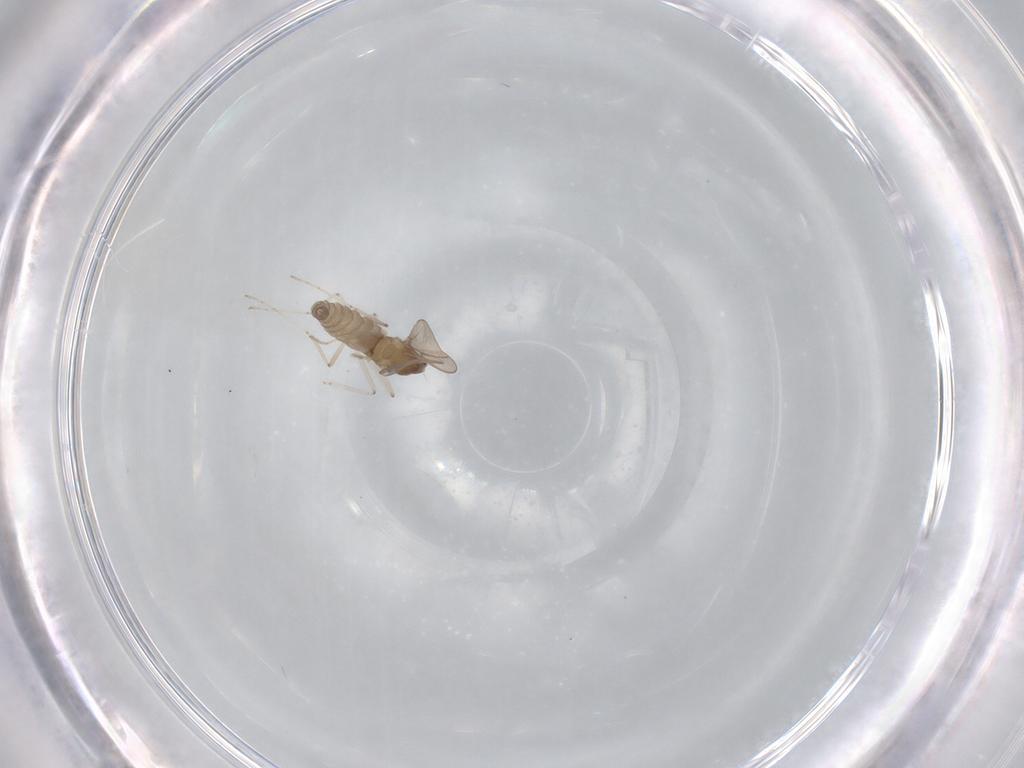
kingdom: Animalia
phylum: Arthropoda
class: Insecta
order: Diptera
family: Cecidomyiidae
